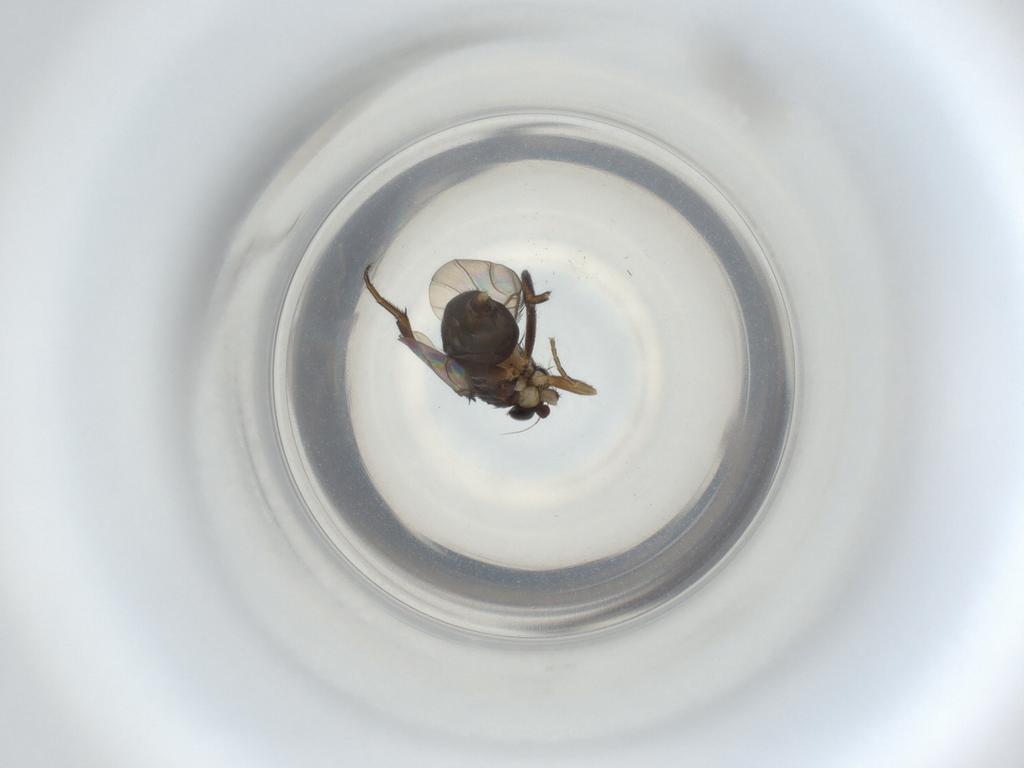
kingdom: Animalia
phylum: Arthropoda
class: Insecta
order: Diptera
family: Phoridae
